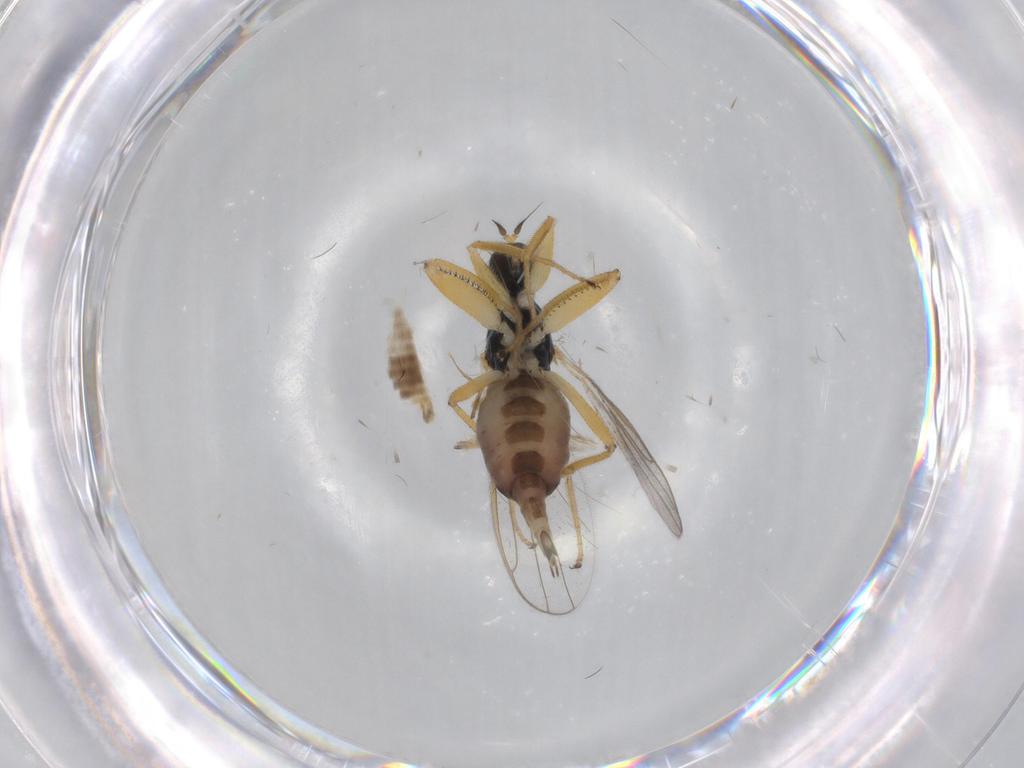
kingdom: Animalia
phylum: Arthropoda
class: Insecta
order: Diptera
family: Hybotidae
